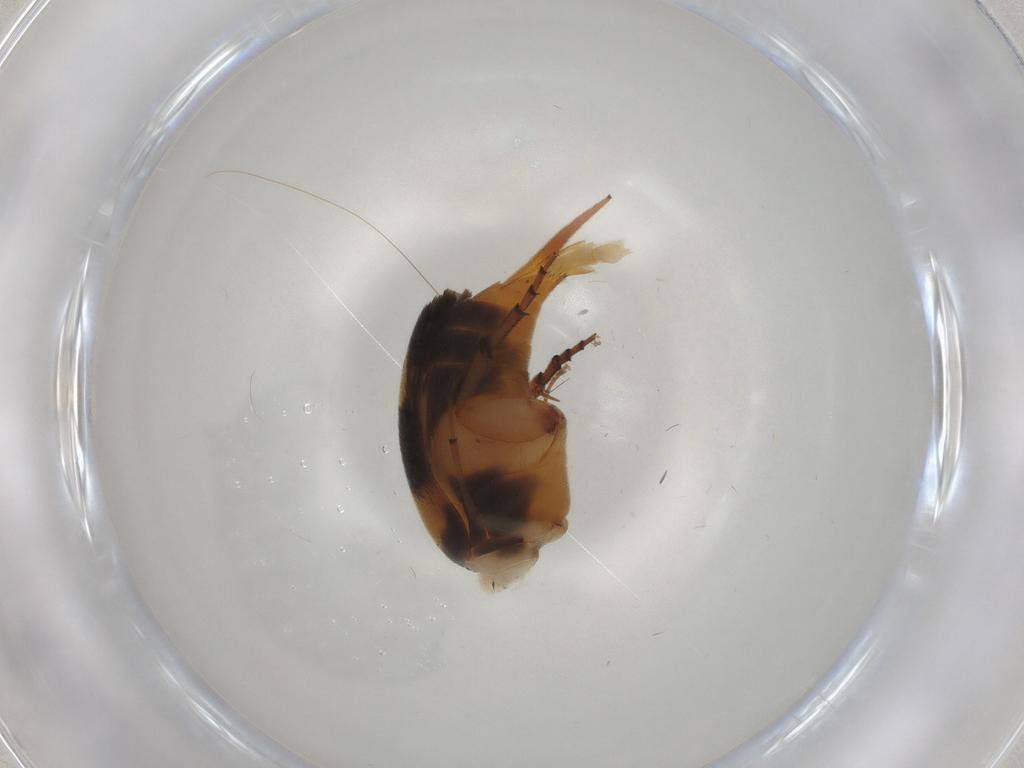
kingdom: Animalia
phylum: Arthropoda
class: Insecta
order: Coleoptera
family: Mordellidae
